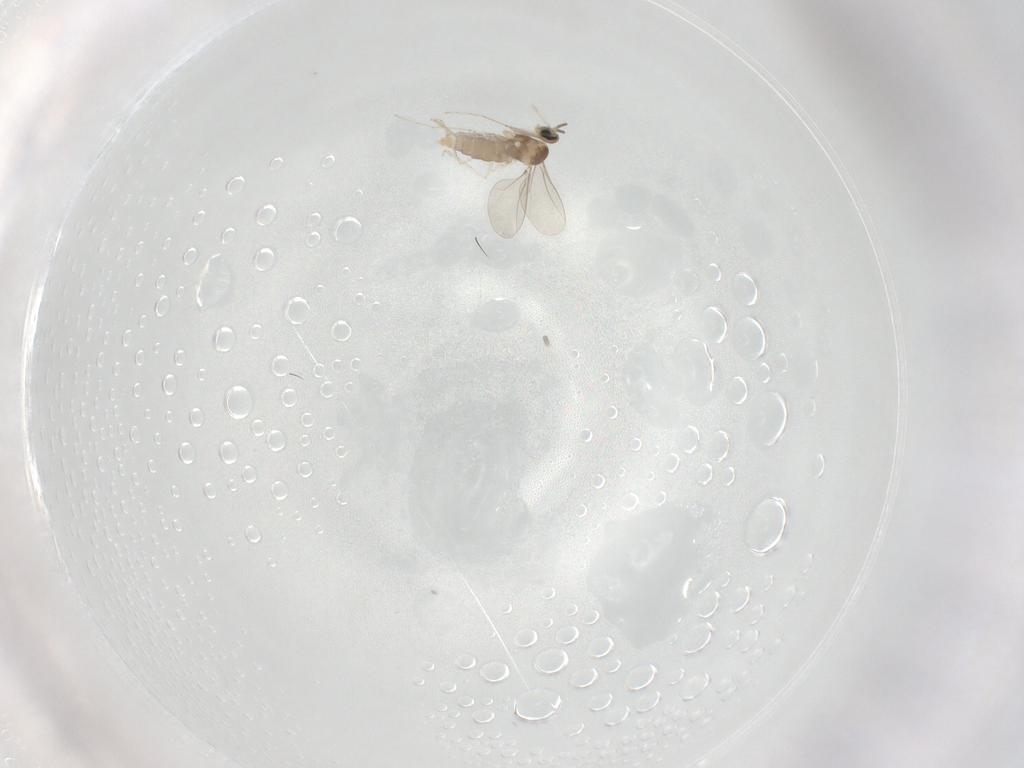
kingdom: Animalia
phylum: Arthropoda
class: Insecta
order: Diptera
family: Cecidomyiidae
